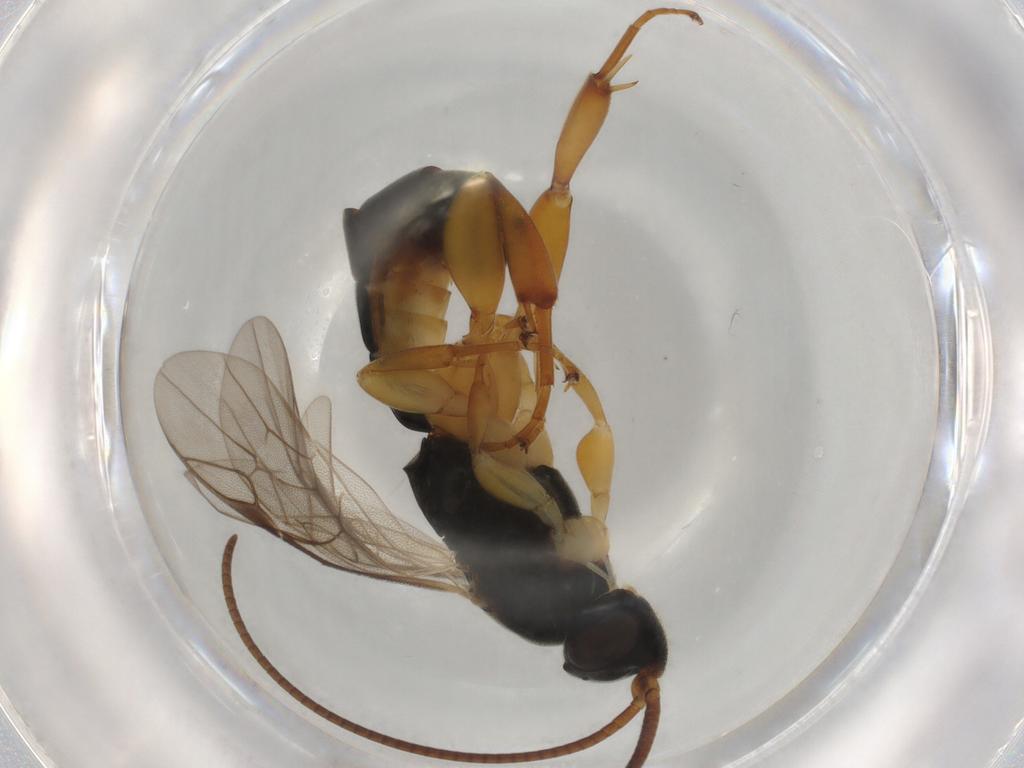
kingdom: Animalia
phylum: Arthropoda
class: Insecta
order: Hymenoptera
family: Ichneumonidae
